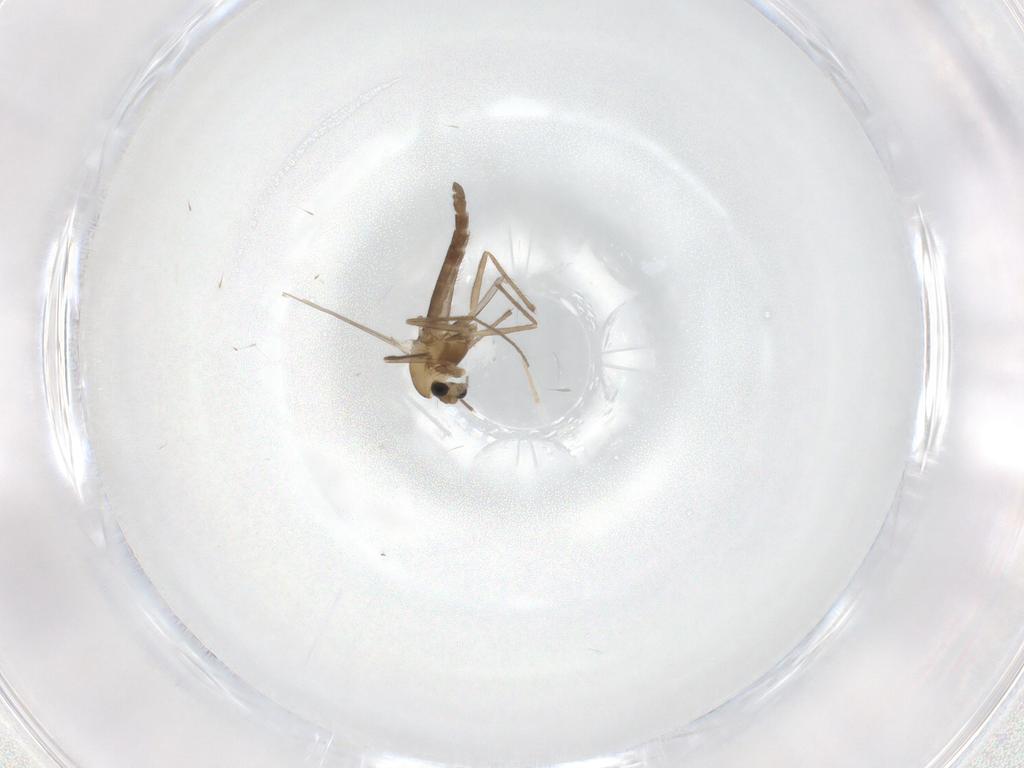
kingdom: Animalia
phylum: Arthropoda
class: Insecta
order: Diptera
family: Chironomidae
